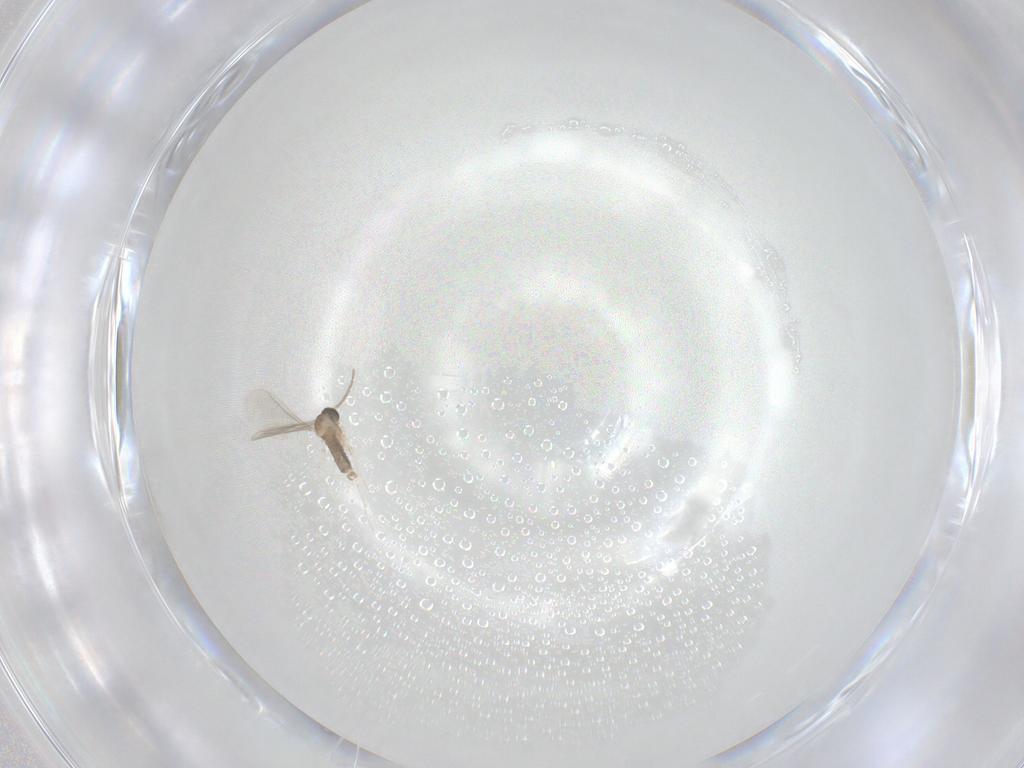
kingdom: Animalia
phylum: Arthropoda
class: Insecta
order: Diptera
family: Cecidomyiidae
